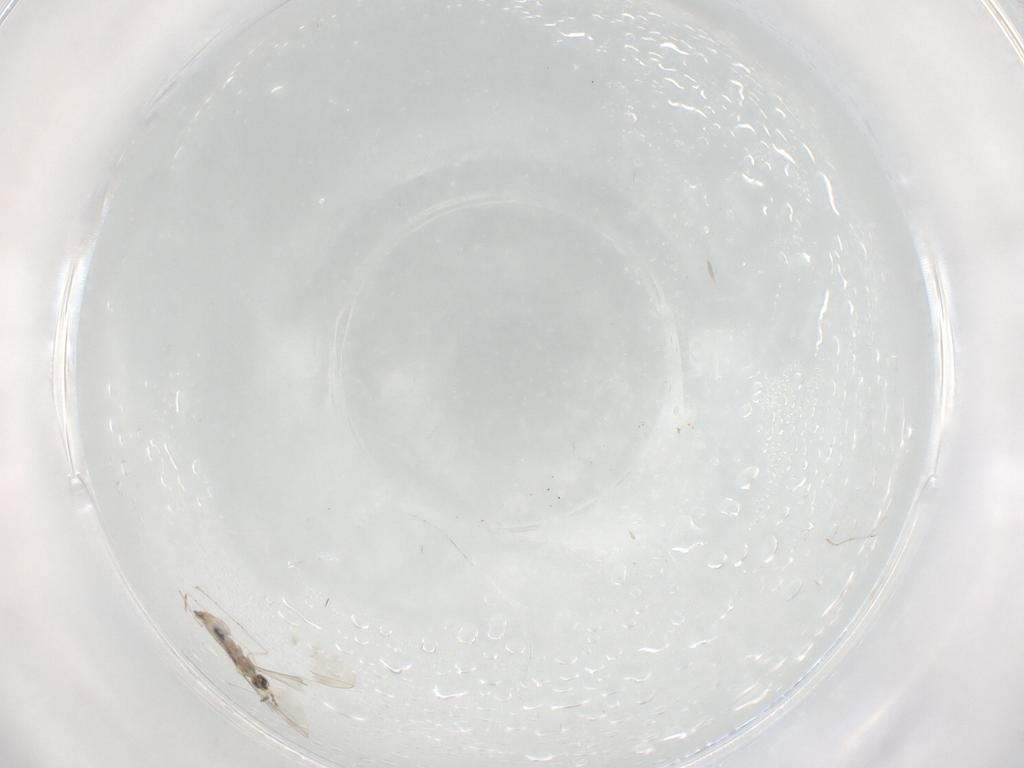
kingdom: Animalia
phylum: Arthropoda
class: Insecta
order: Diptera
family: Cecidomyiidae
